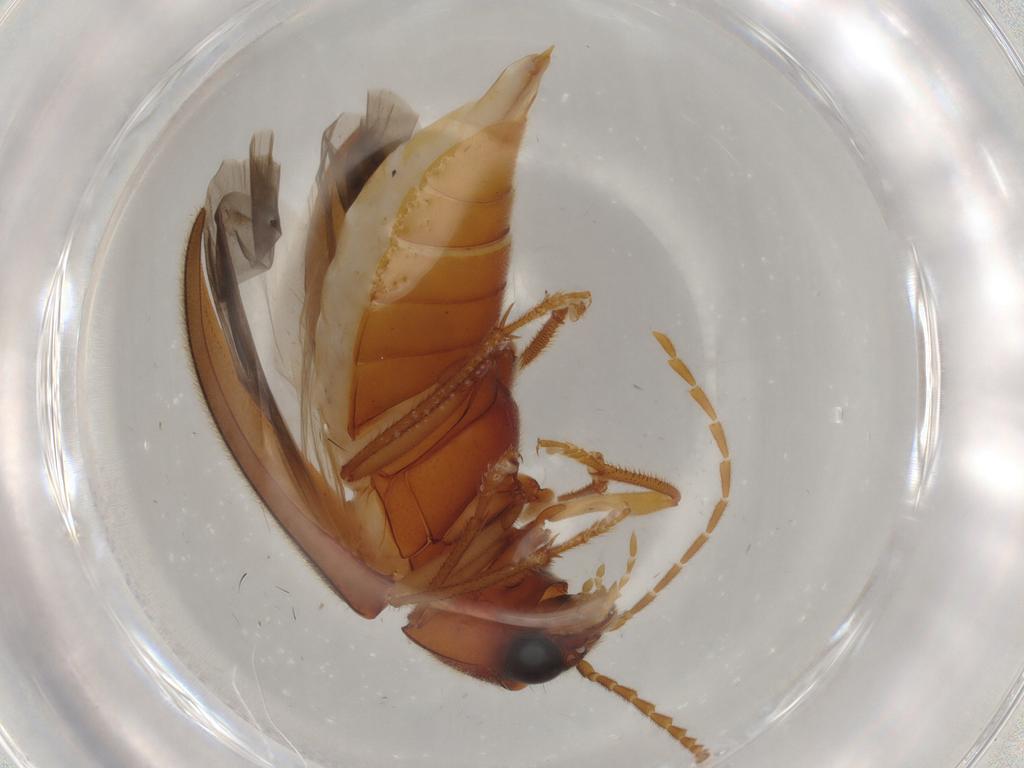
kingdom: Animalia
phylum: Arthropoda
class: Insecta
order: Coleoptera
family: Ptilodactylidae
